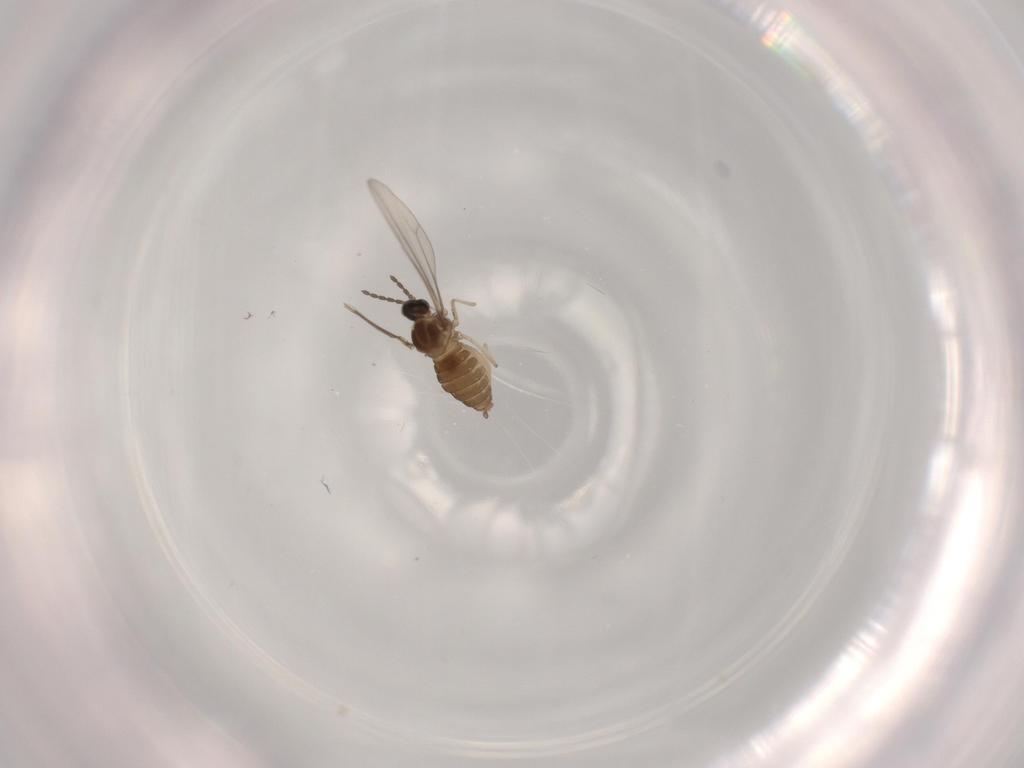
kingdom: Animalia
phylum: Arthropoda
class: Insecta
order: Diptera
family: Cecidomyiidae
